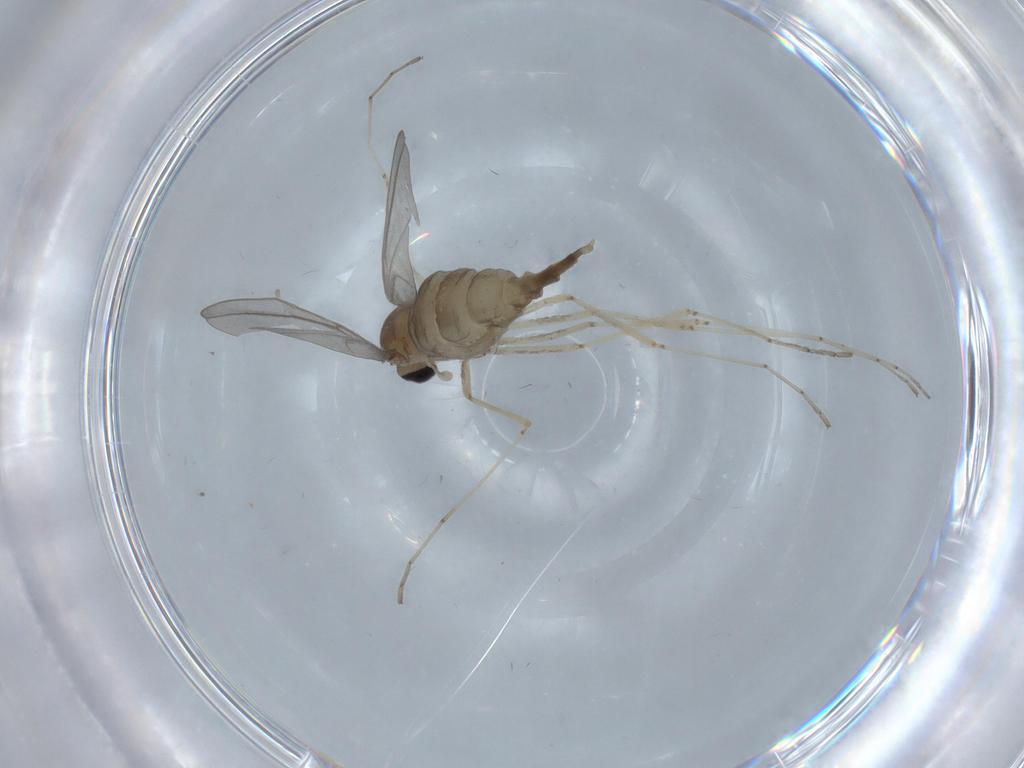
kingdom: Animalia
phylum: Arthropoda
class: Insecta
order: Diptera
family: Cecidomyiidae
